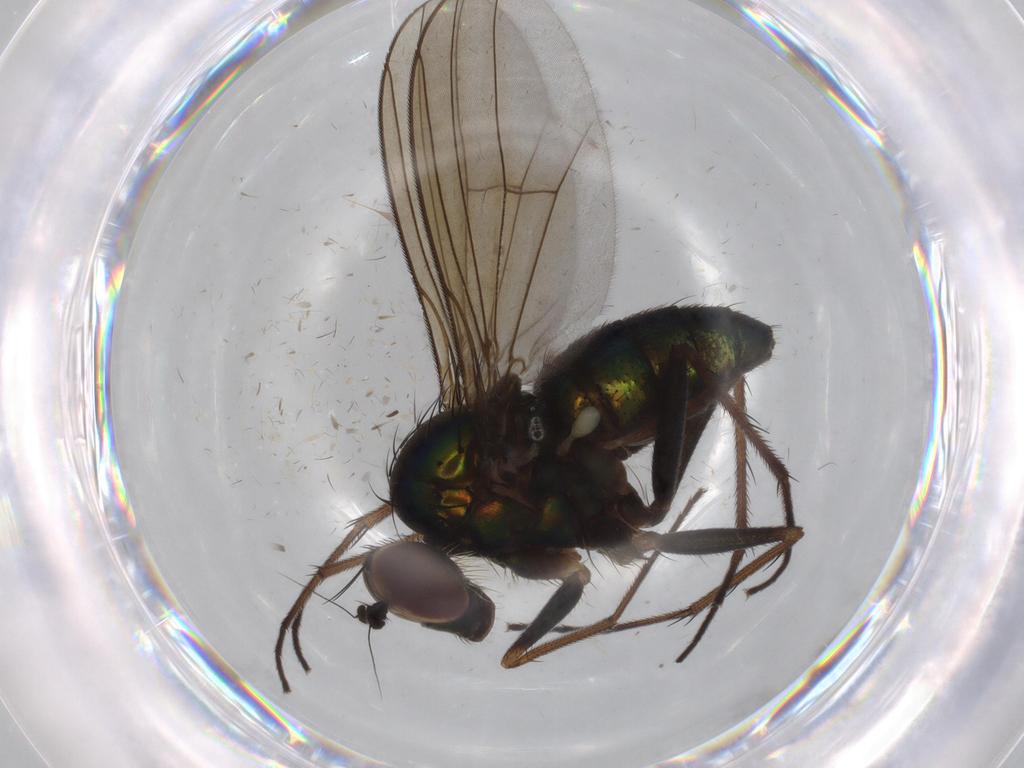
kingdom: Animalia
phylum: Arthropoda
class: Insecta
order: Diptera
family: Dolichopodidae
